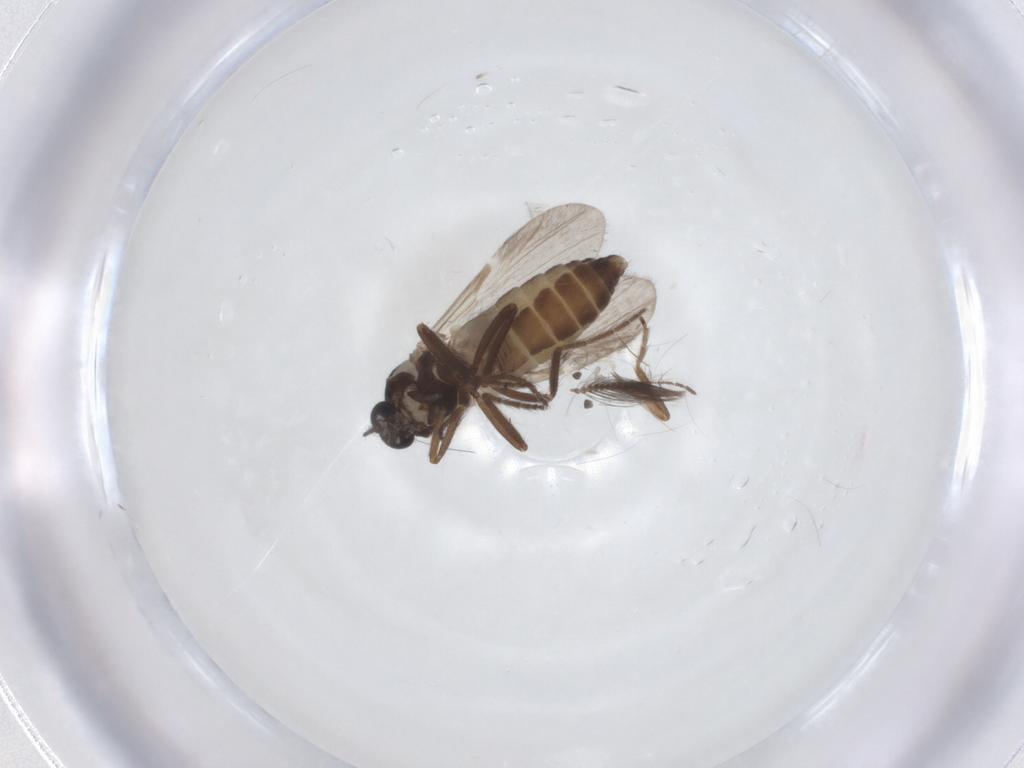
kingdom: Animalia
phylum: Arthropoda
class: Insecta
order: Diptera
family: Ceratopogonidae
